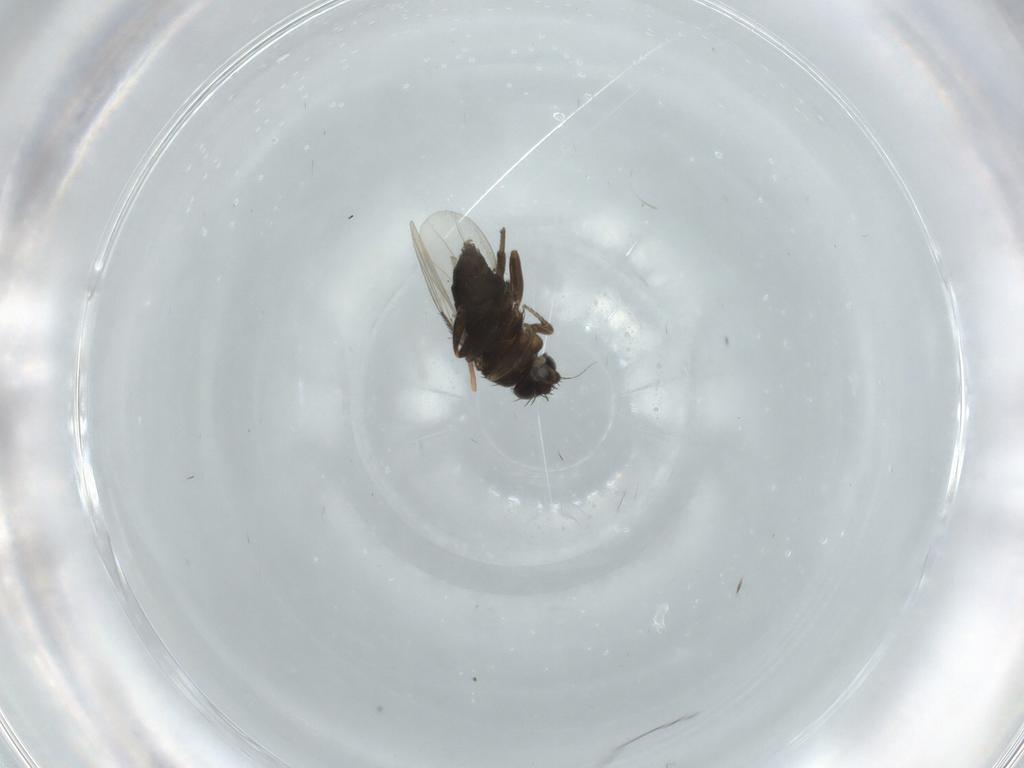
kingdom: Animalia
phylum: Arthropoda
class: Insecta
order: Diptera
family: Phoridae
